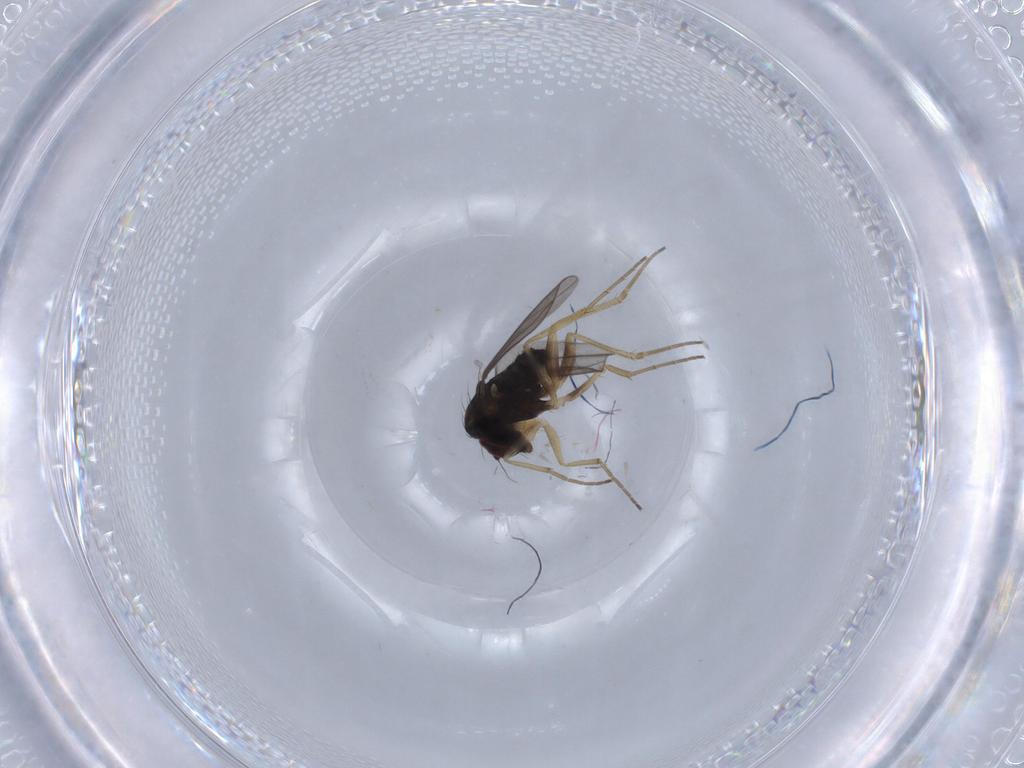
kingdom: Animalia
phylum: Arthropoda
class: Insecta
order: Diptera
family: Dolichopodidae
